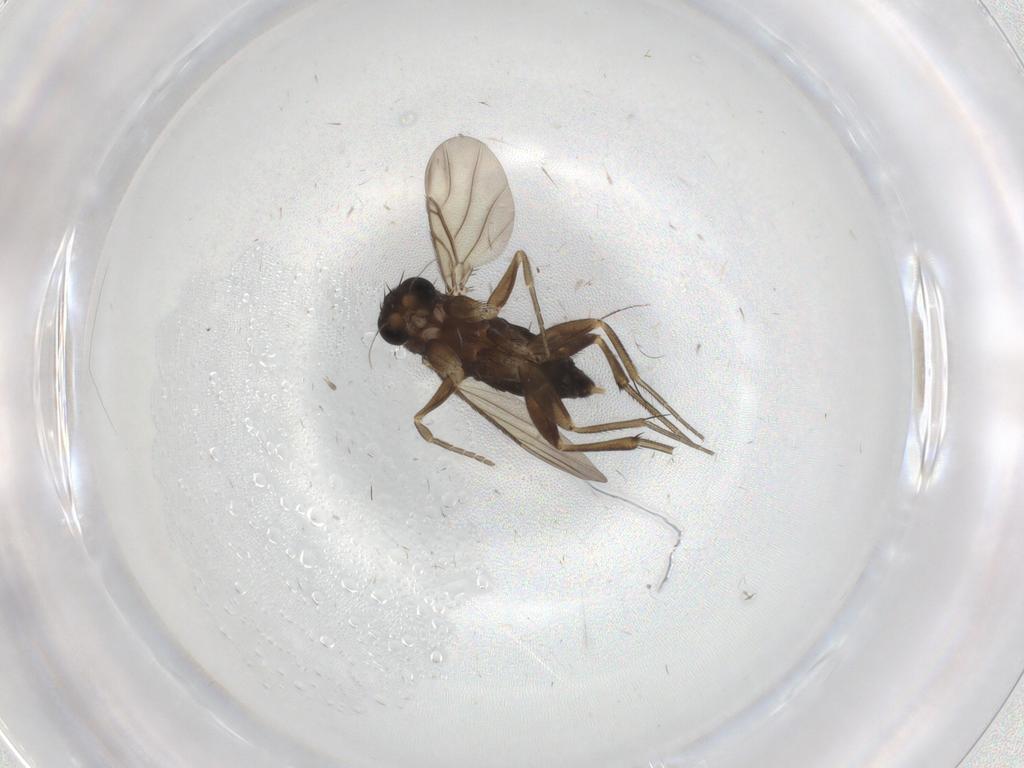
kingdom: Animalia
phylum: Arthropoda
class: Insecta
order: Diptera
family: Phoridae
